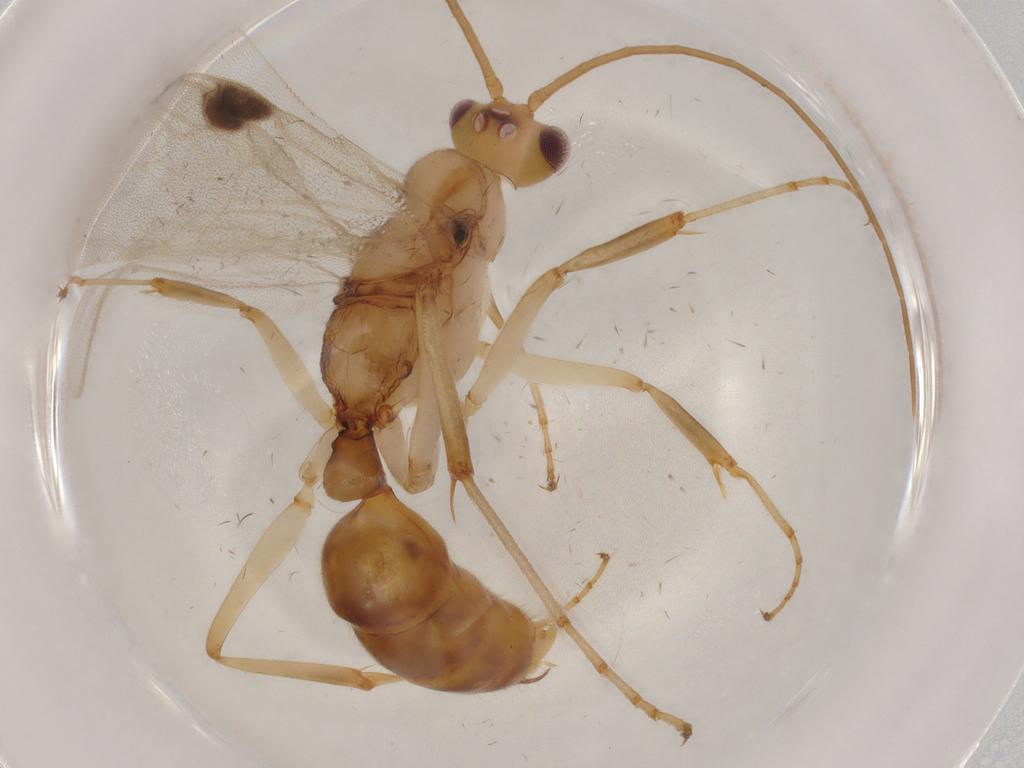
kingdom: Animalia
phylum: Arthropoda
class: Insecta
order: Hymenoptera
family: Formicidae
